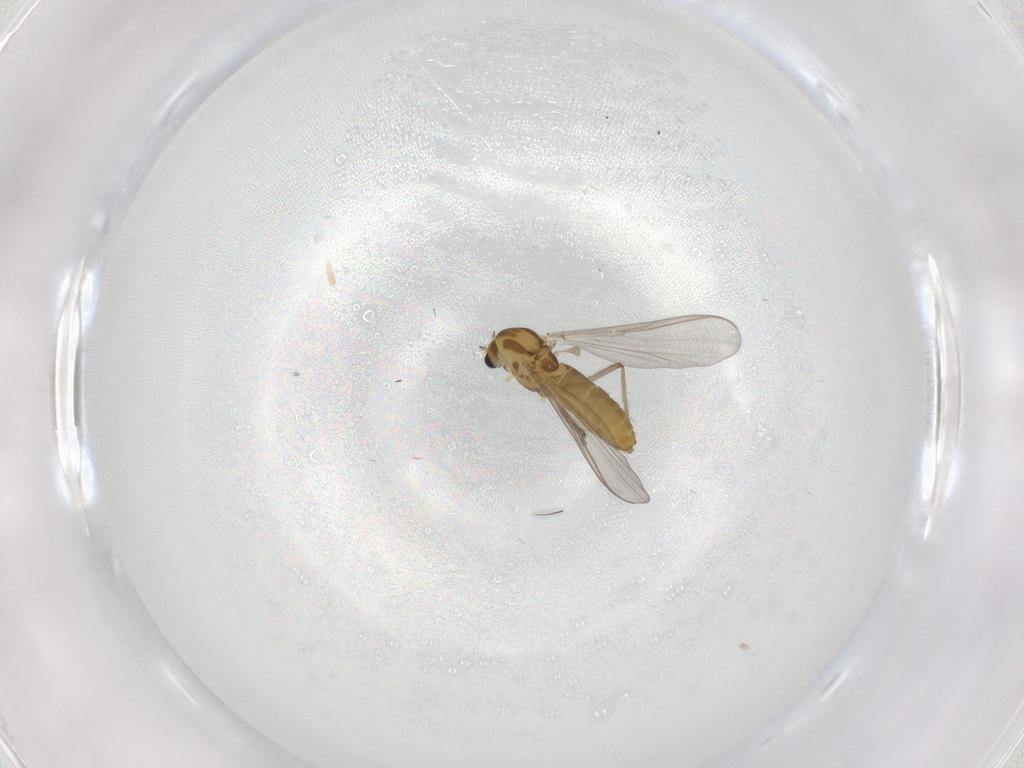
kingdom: Animalia
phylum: Arthropoda
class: Insecta
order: Diptera
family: Chironomidae
